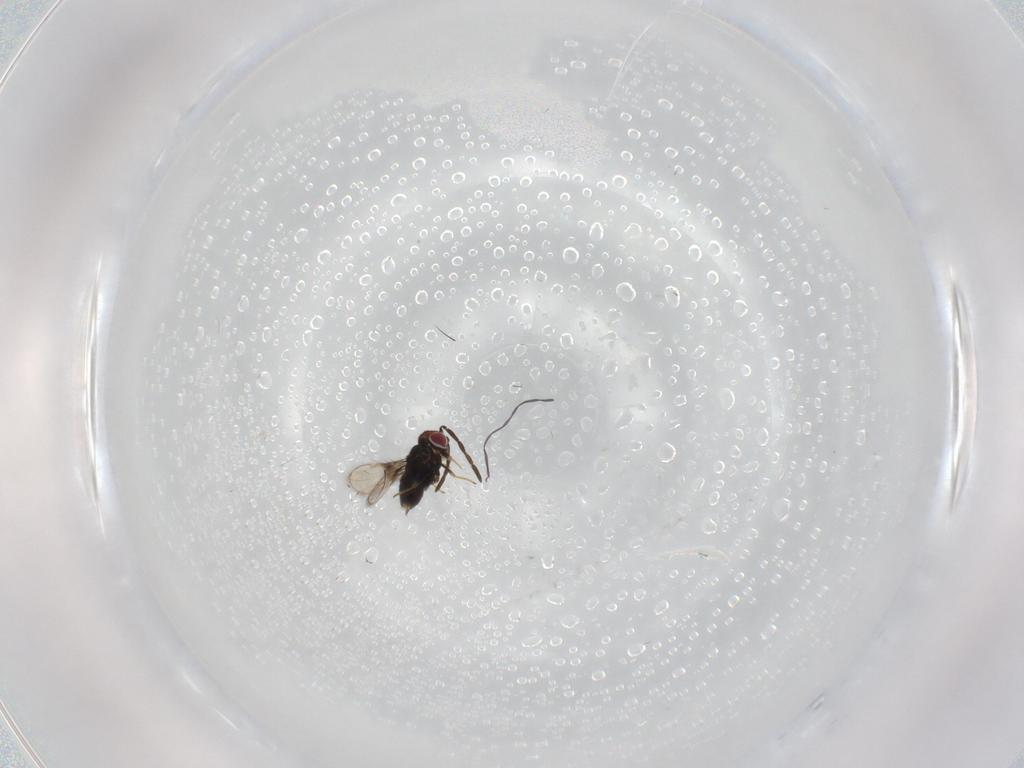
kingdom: Animalia
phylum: Arthropoda
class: Insecta
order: Hymenoptera
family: Azotidae
